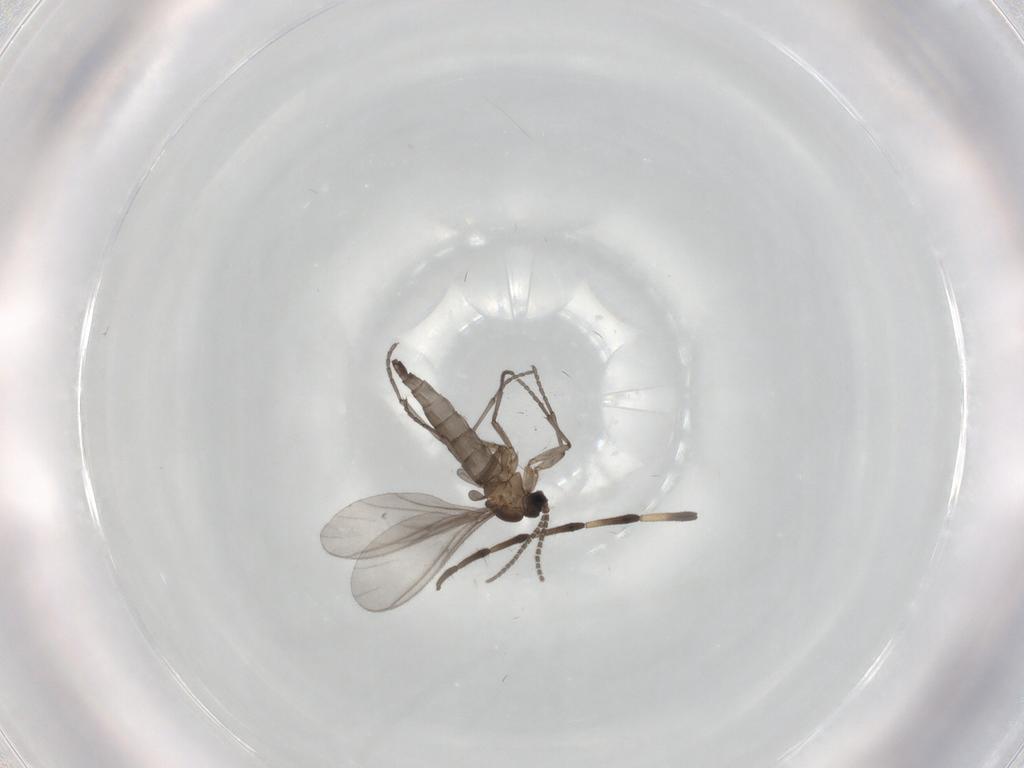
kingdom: Animalia
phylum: Arthropoda
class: Insecta
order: Diptera
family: Sciaridae
